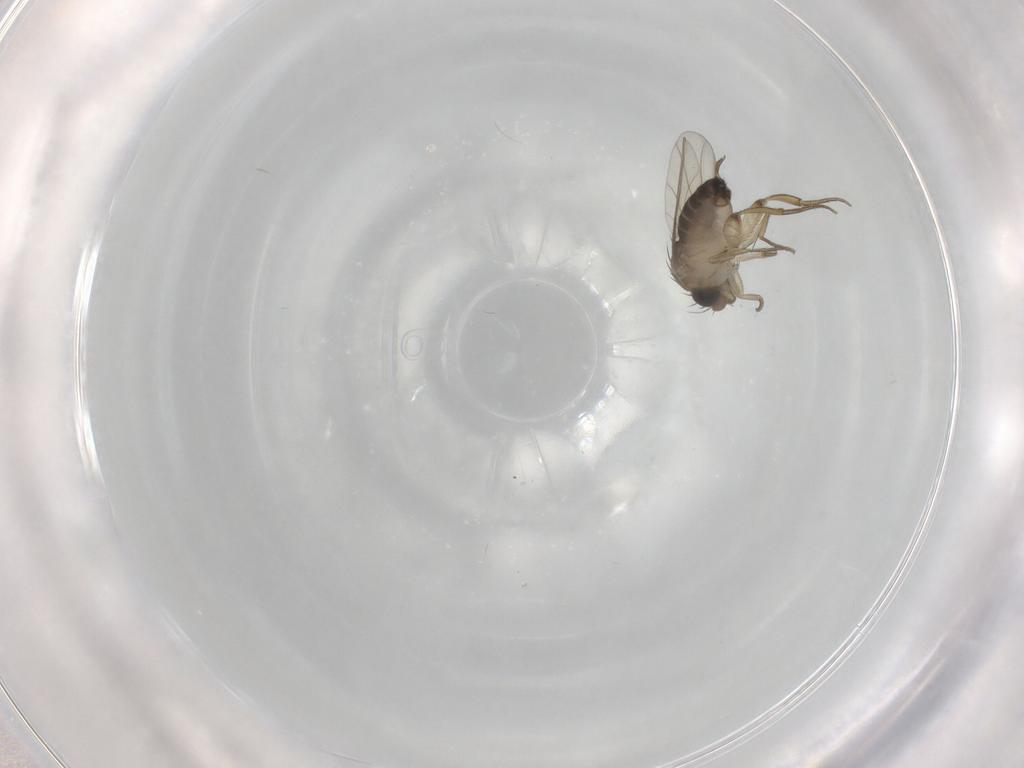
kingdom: Animalia
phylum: Arthropoda
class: Insecta
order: Diptera
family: Phoridae
